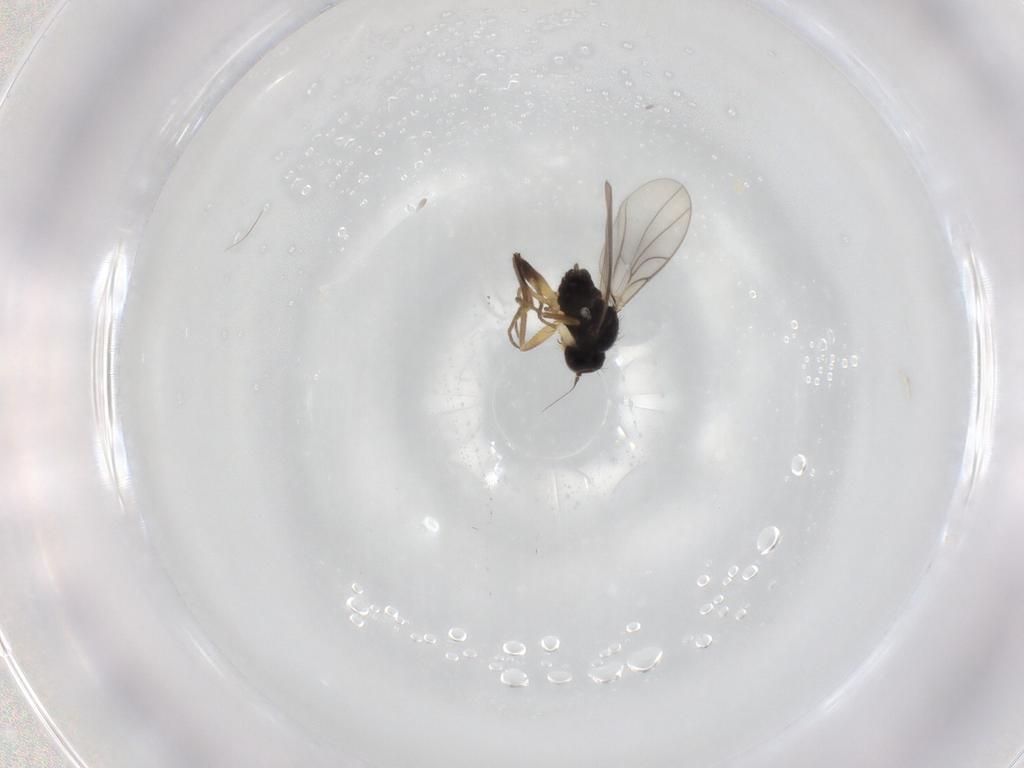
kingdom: Animalia
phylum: Arthropoda
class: Insecta
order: Diptera
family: Hybotidae
